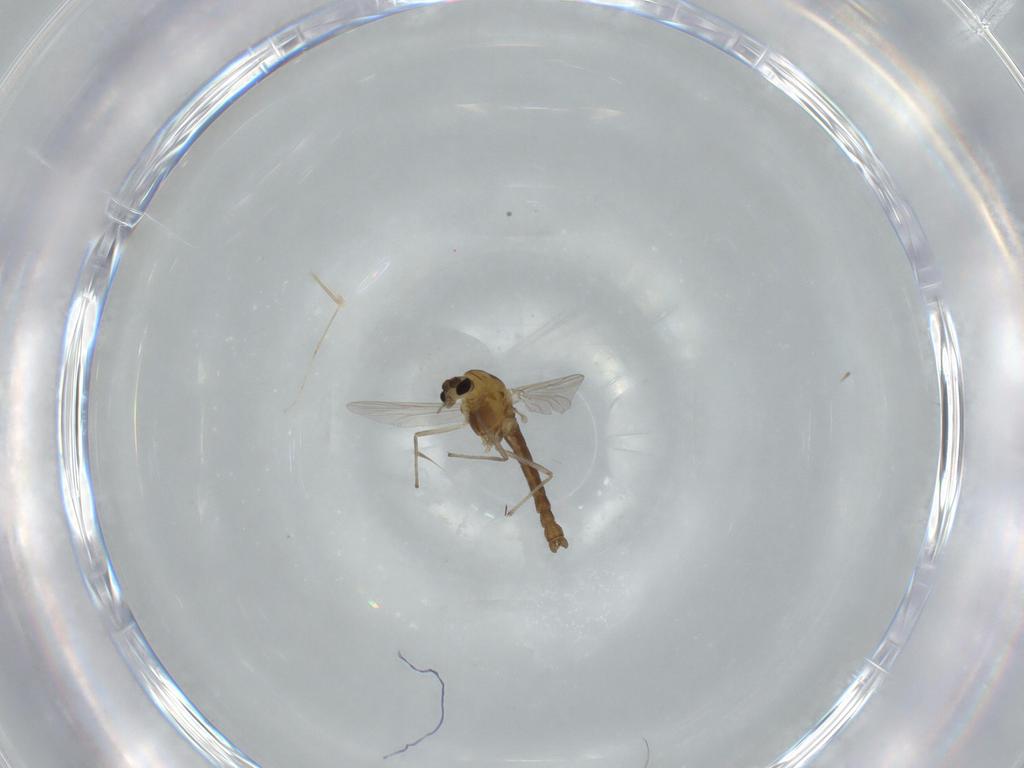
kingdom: Animalia
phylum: Arthropoda
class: Insecta
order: Diptera
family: Chironomidae
